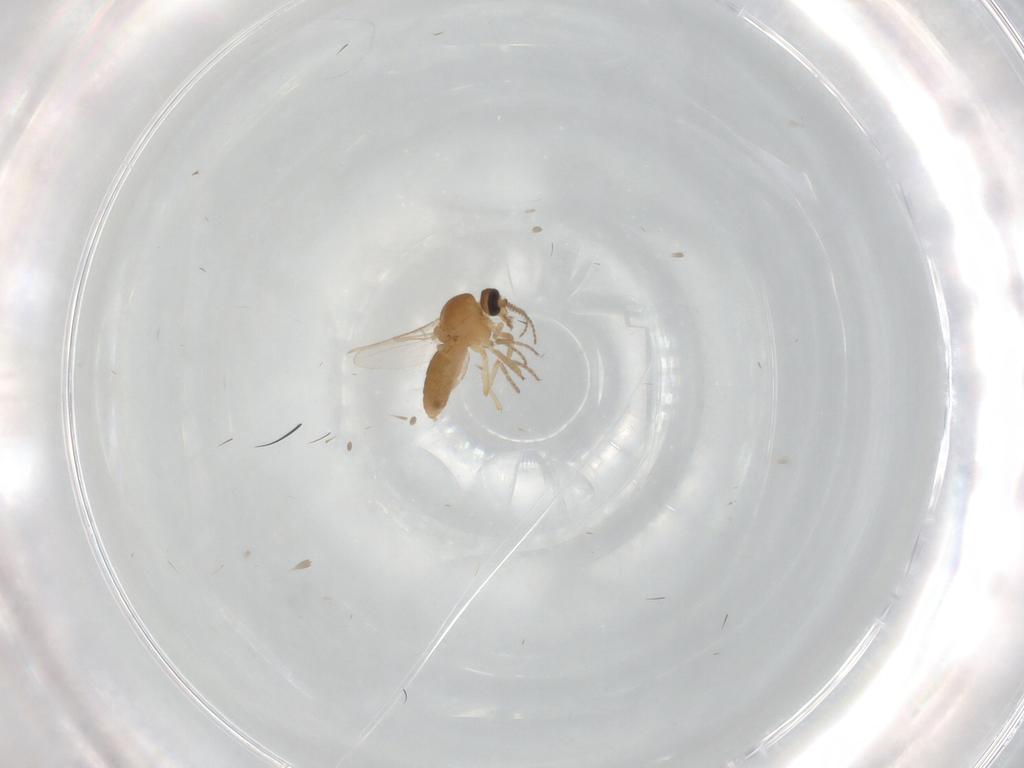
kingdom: Animalia
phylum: Arthropoda
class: Insecta
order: Diptera
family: Ceratopogonidae
